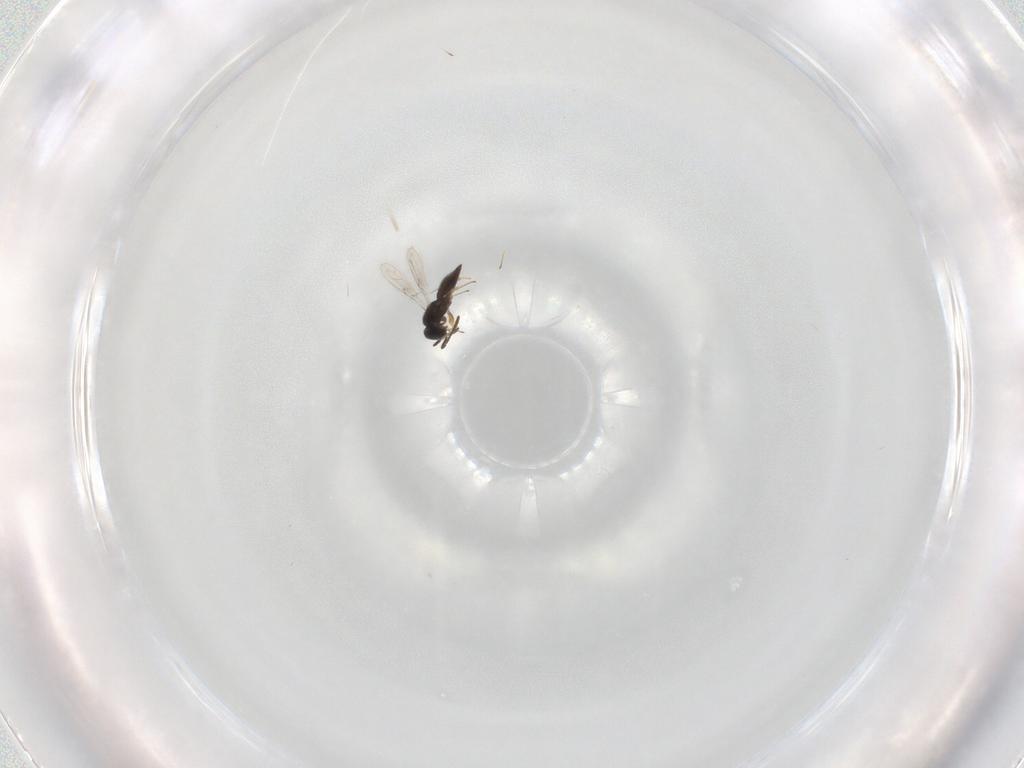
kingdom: Animalia
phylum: Arthropoda
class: Insecta
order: Hymenoptera
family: Scelionidae
